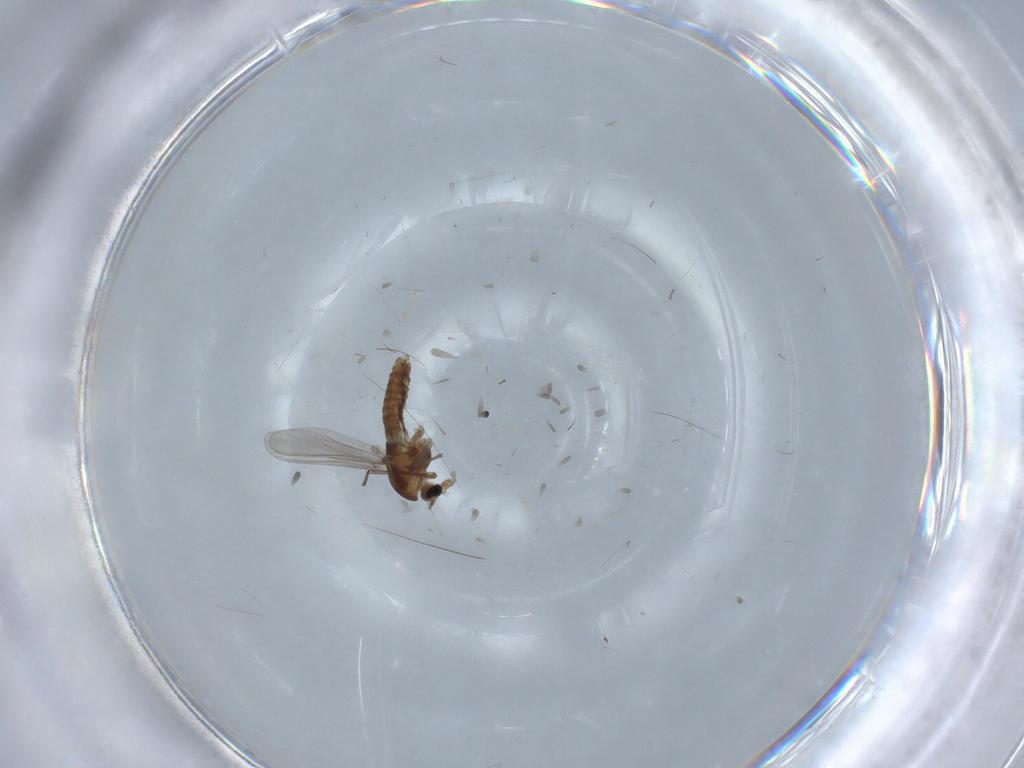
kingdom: Animalia
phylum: Arthropoda
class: Insecta
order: Diptera
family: Chironomidae
